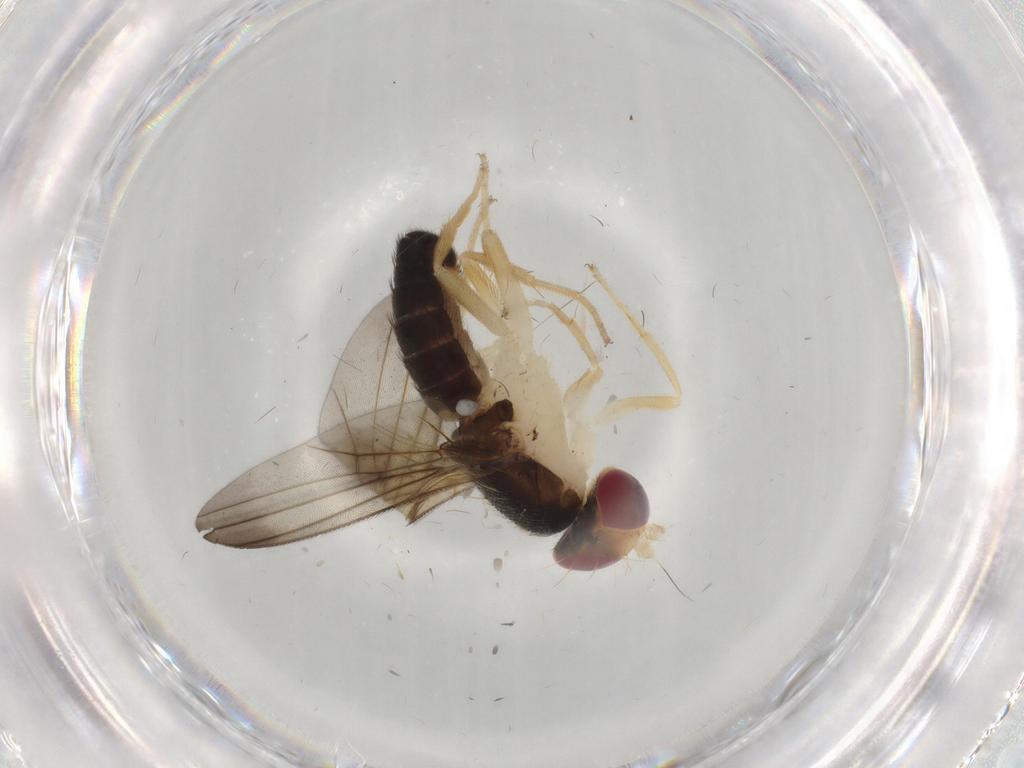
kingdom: Animalia
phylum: Arthropoda
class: Insecta
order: Diptera
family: Clusiidae
